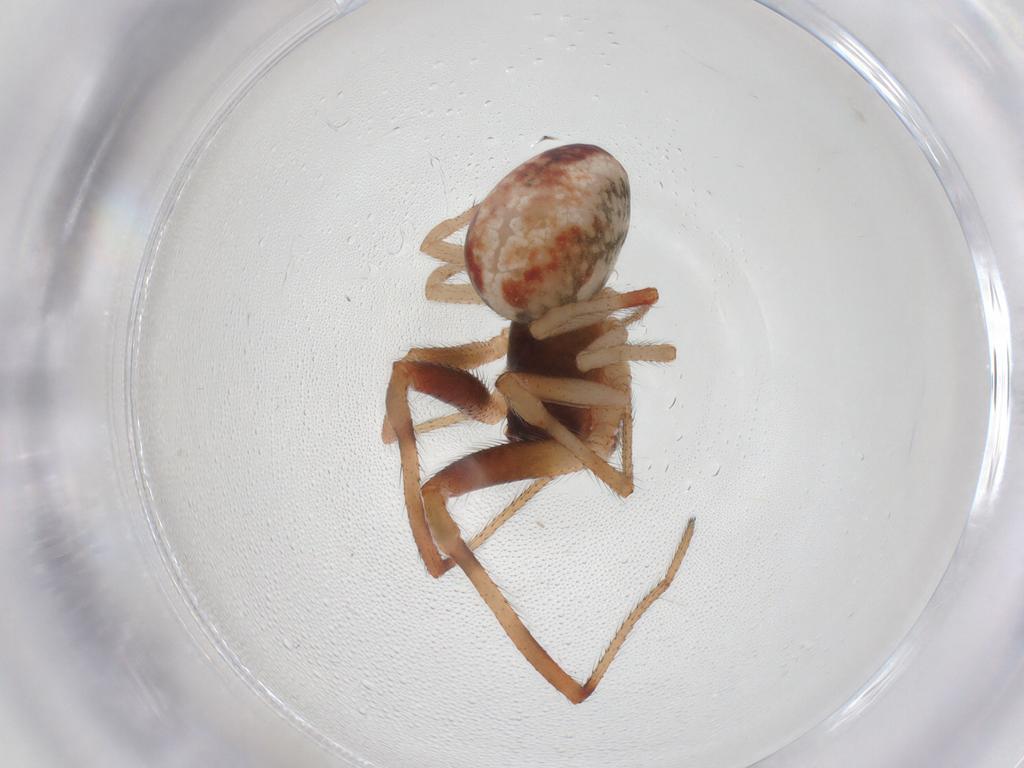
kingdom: Animalia
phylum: Arthropoda
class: Arachnida
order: Araneae
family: Theridiidae
